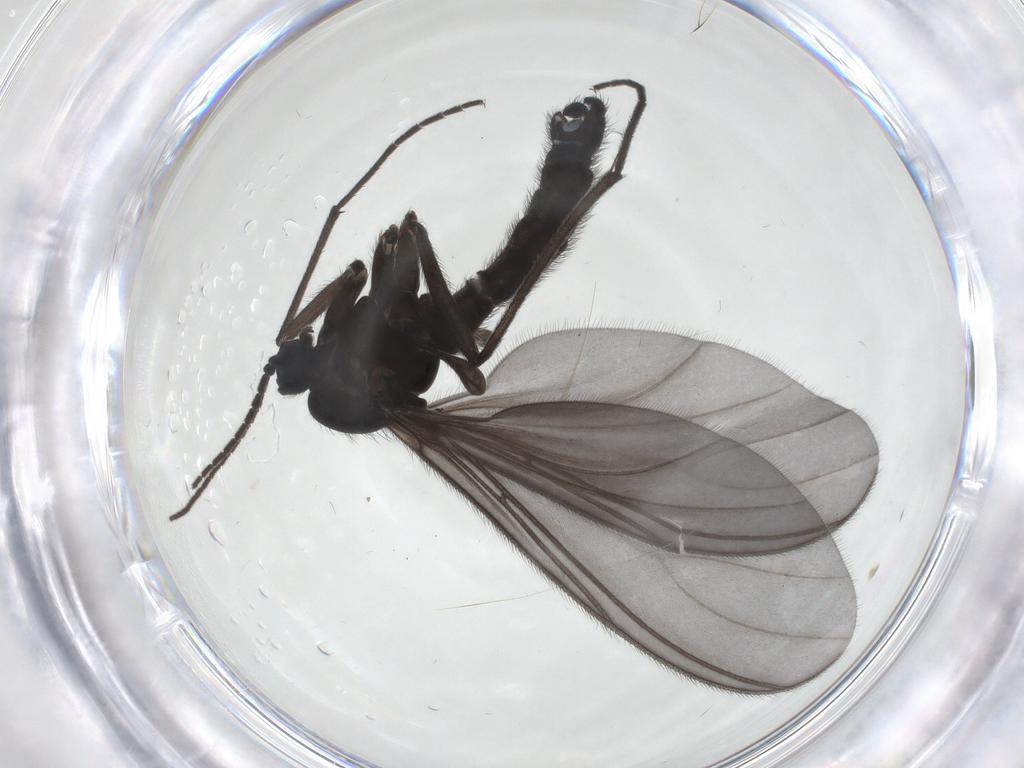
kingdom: Animalia
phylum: Arthropoda
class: Insecta
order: Diptera
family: Sciaridae
